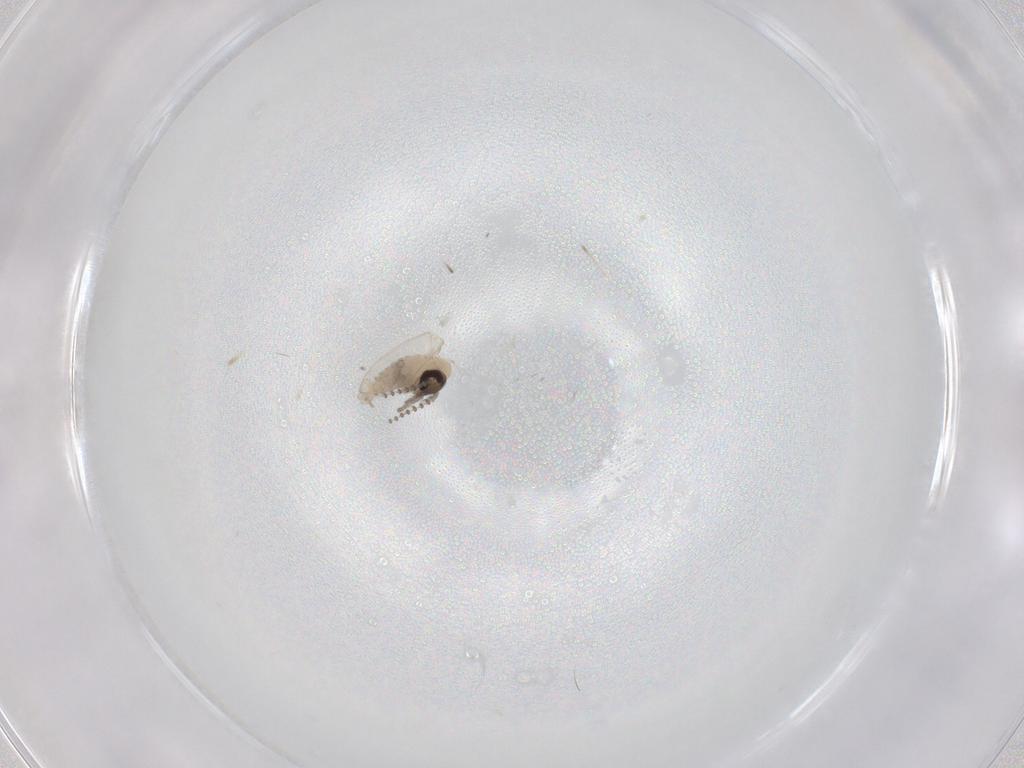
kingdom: Animalia
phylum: Arthropoda
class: Insecta
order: Diptera
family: Psychodidae
